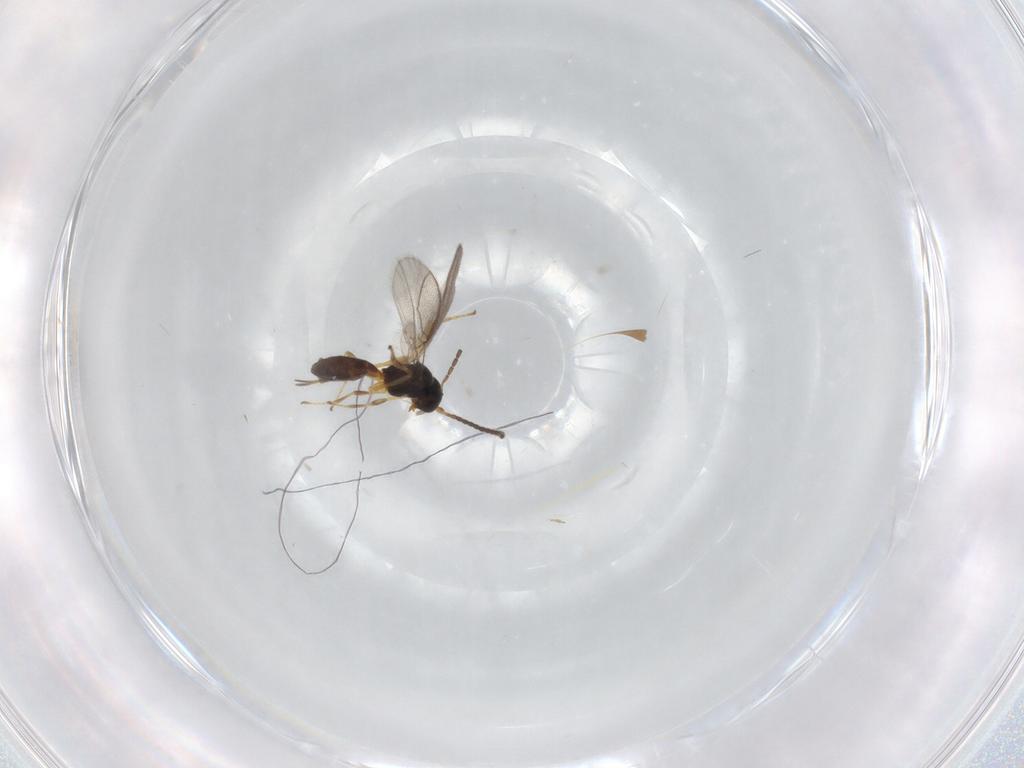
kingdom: Animalia
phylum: Arthropoda
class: Insecta
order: Hymenoptera
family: Braconidae
